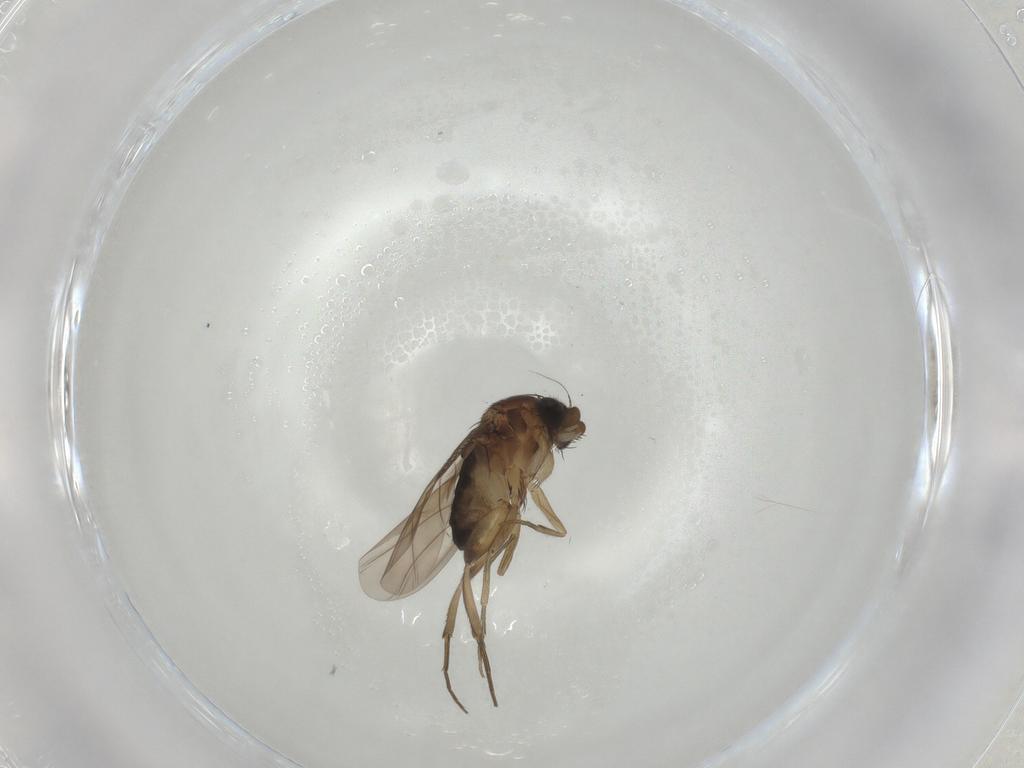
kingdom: Animalia
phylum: Arthropoda
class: Insecta
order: Diptera
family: Phoridae
